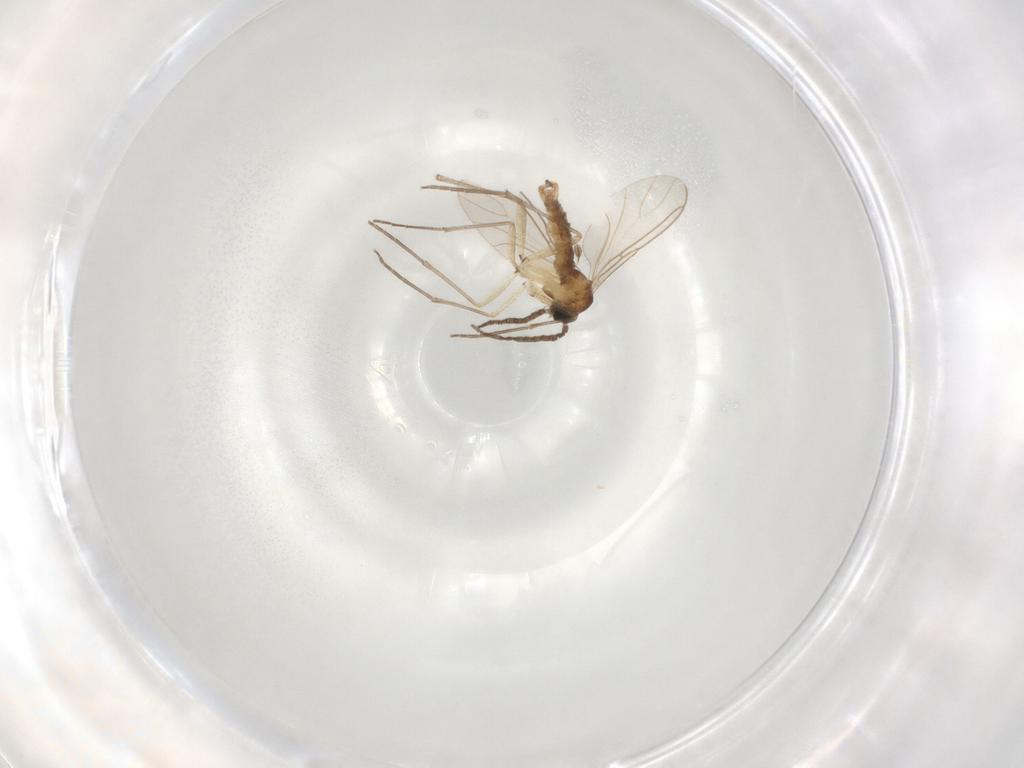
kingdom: Animalia
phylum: Arthropoda
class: Insecta
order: Diptera
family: Sciaridae
